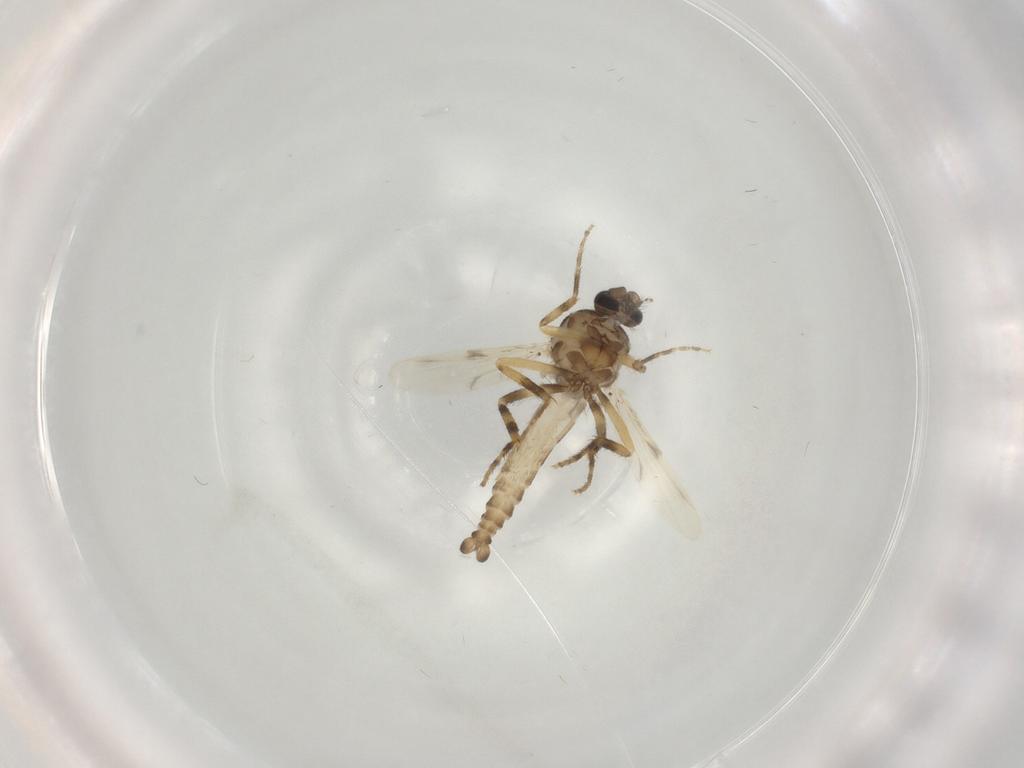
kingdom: Animalia
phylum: Arthropoda
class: Insecta
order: Diptera
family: Ceratopogonidae
